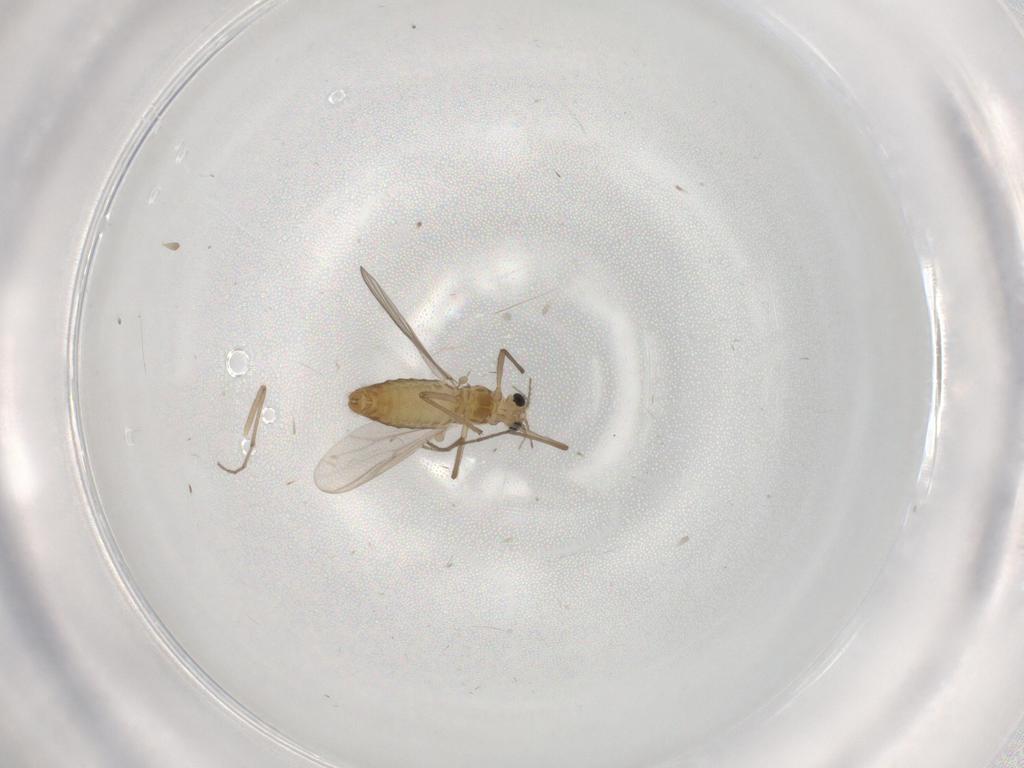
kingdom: Animalia
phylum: Arthropoda
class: Insecta
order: Diptera
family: Chironomidae
